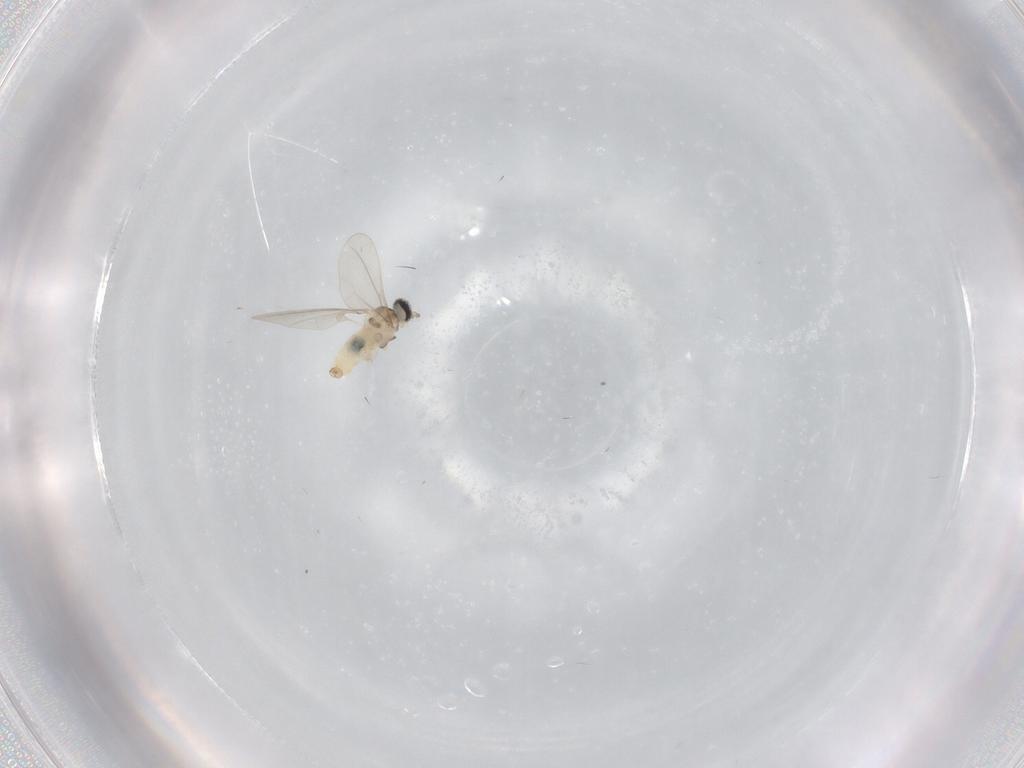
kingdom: Animalia
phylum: Arthropoda
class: Insecta
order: Diptera
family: Cecidomyiidae
